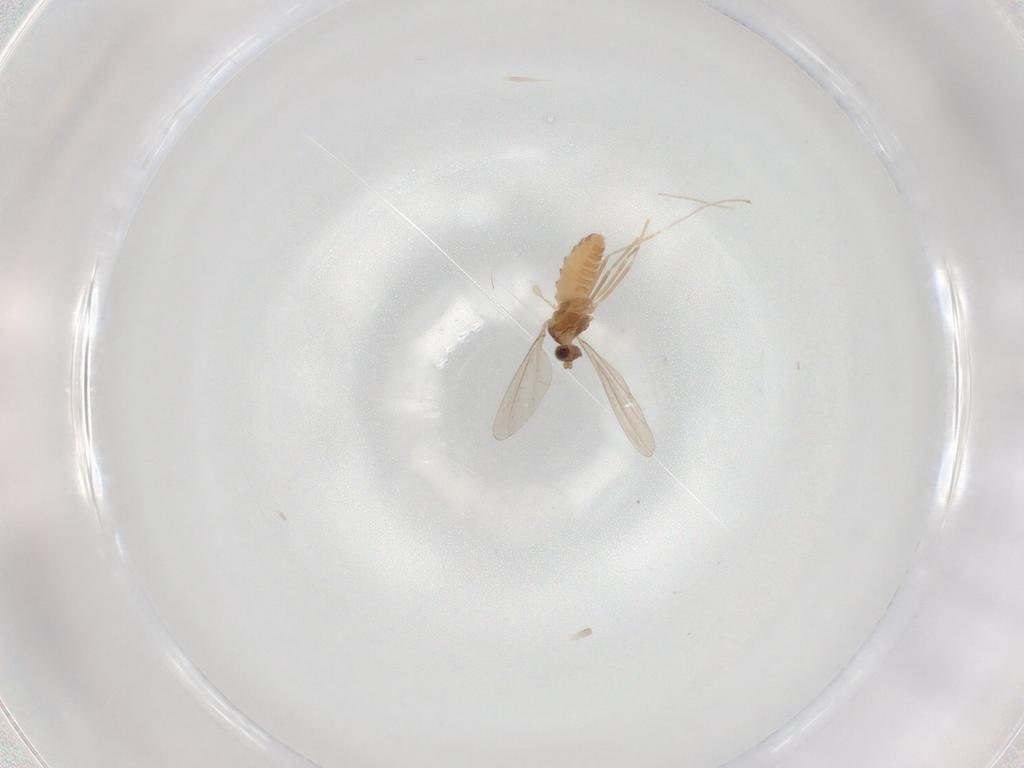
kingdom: Animalia
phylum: Arthropoda
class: Insecta
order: Diptera
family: Cecidomyiidae
